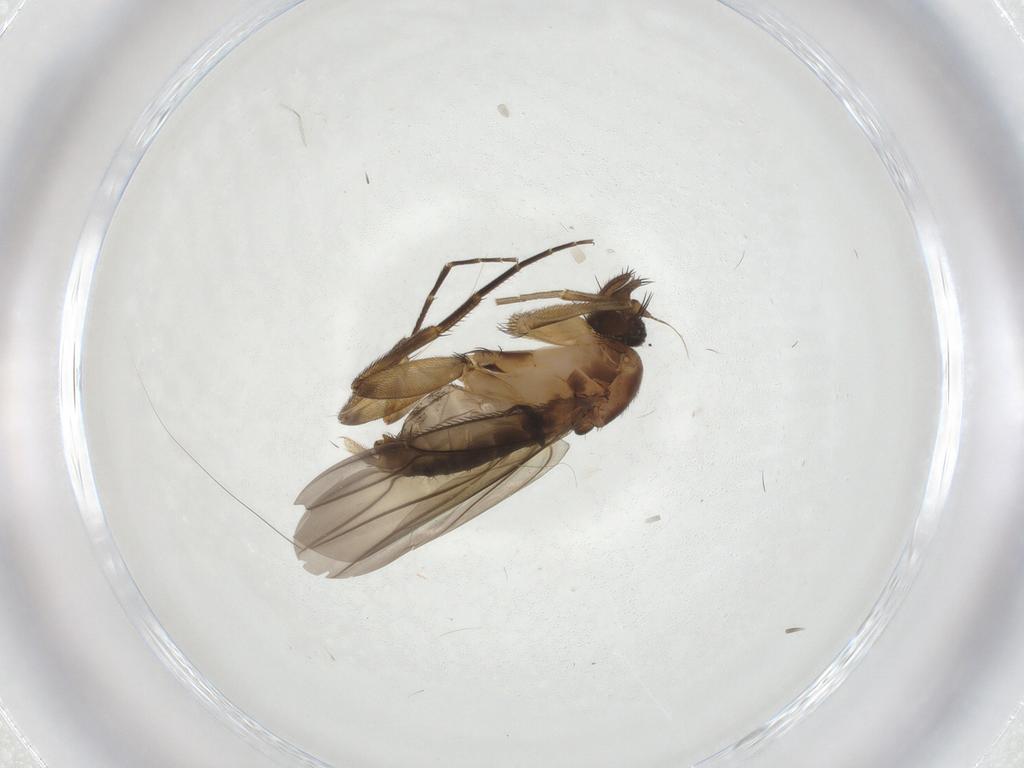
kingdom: Animalia
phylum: Arthropoda
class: Insecta
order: Diptera
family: Phoridae
